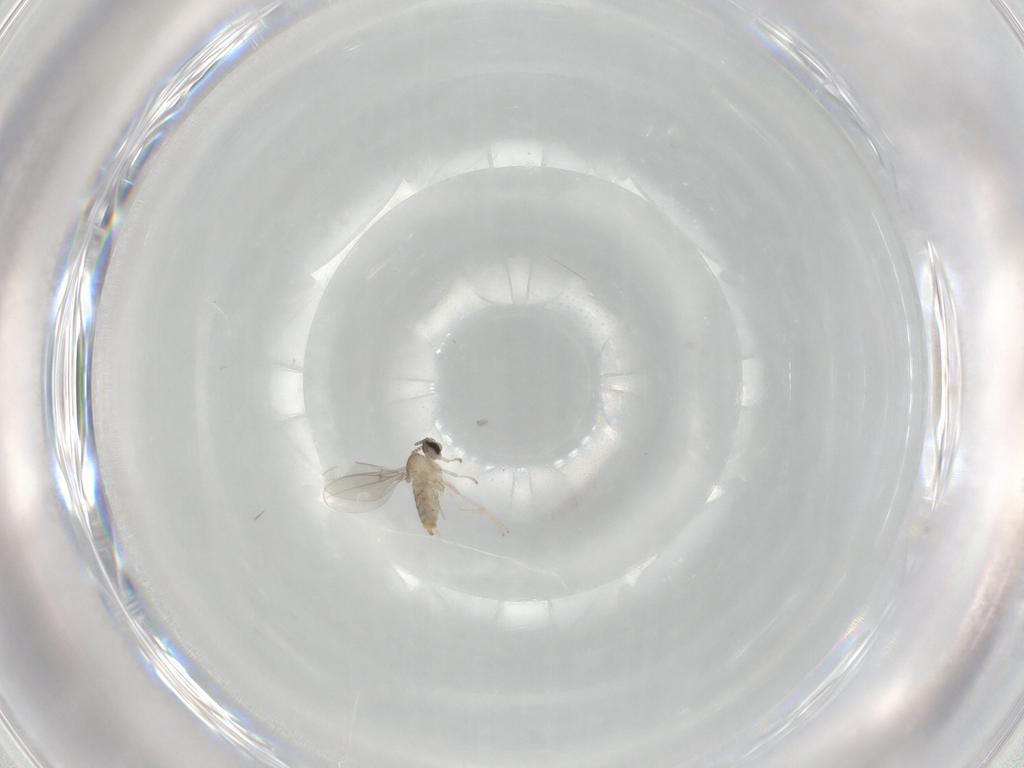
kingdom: Animalia
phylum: Arthropoda
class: Insecta
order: Diptera
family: Cecidomyiidae
